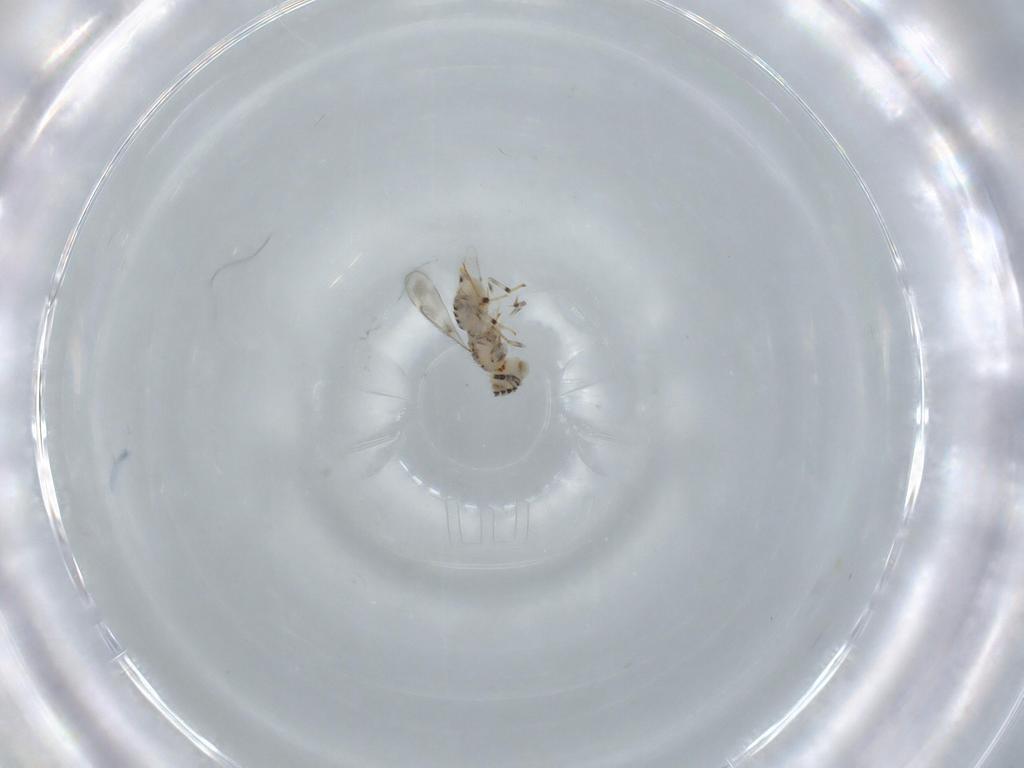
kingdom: Animalia
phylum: Arthropoda
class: Insecta
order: Hymenoptera
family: Aphelinidae
